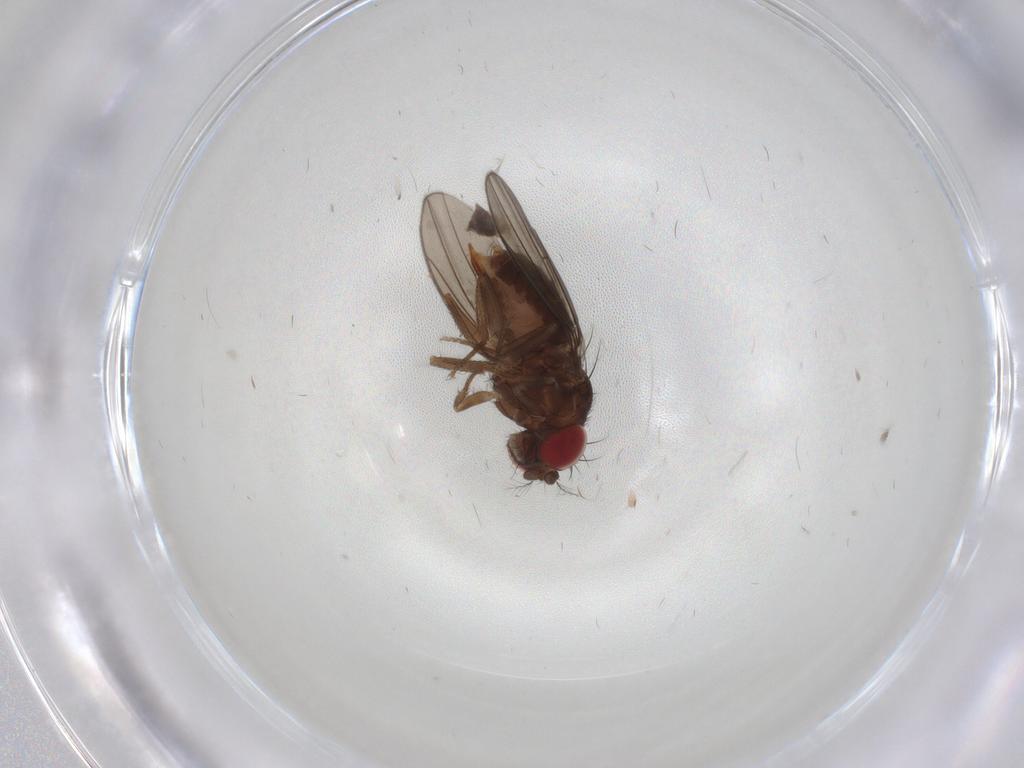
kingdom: Animalia
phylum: Arthropoda
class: Insecta
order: Diptera
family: Drosophilidae
